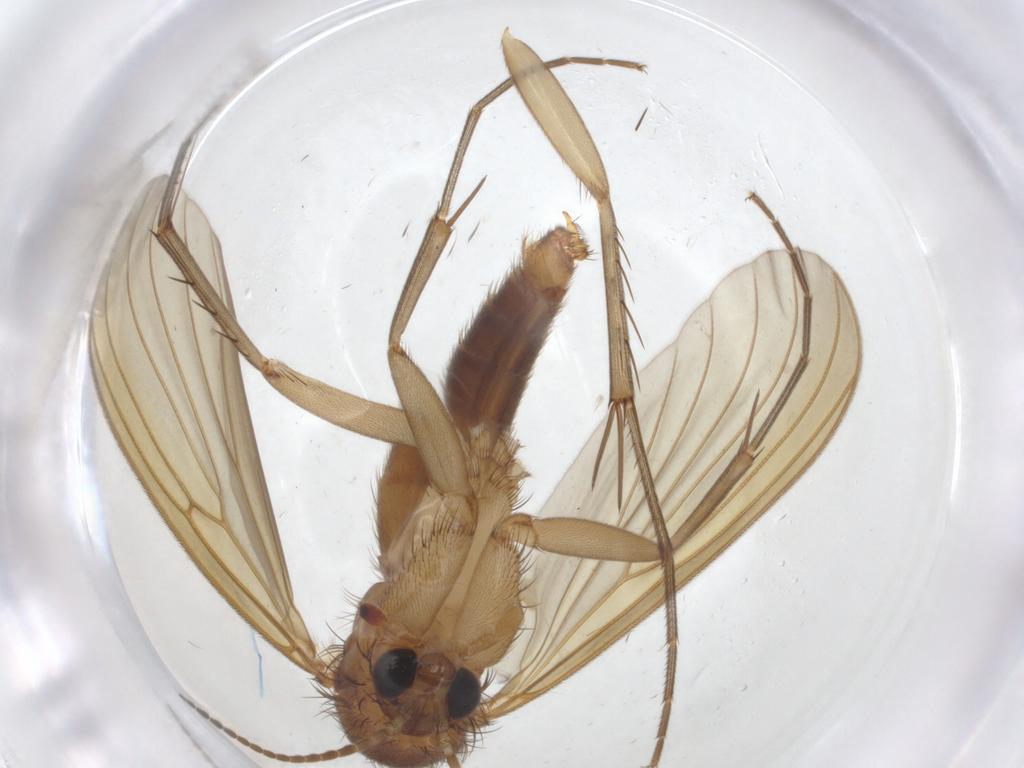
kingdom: Animalia
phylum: Arthropoda
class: Insecta
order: Diptera
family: Mycetophilidae
